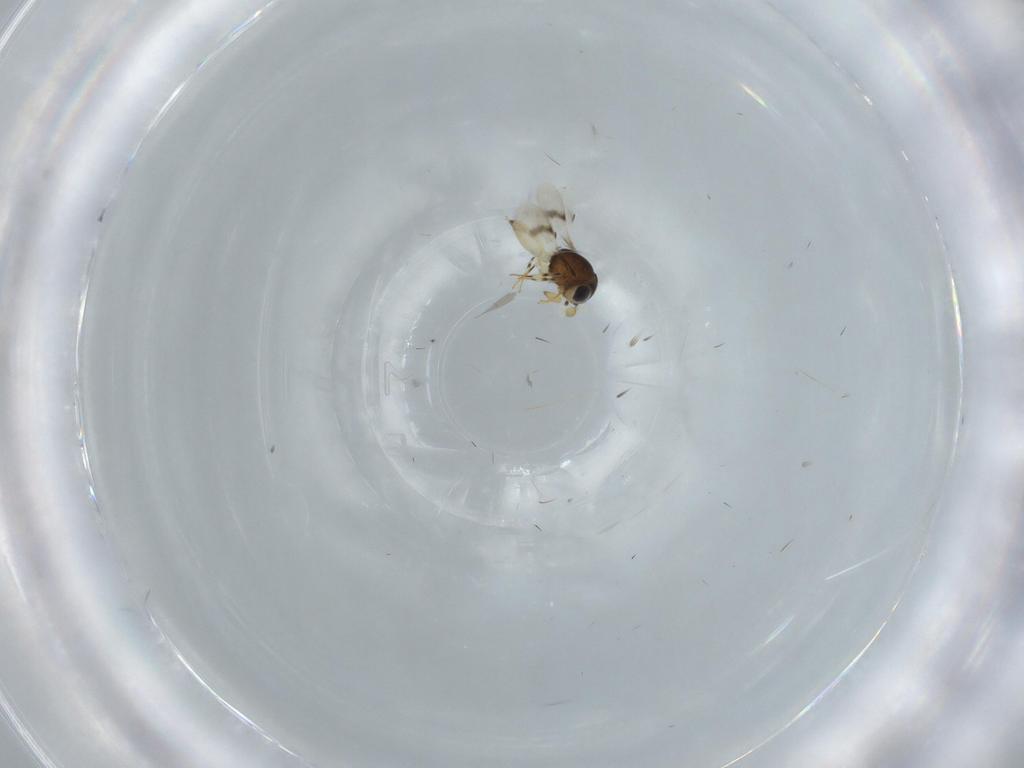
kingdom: Animalia
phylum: Arthropoda
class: Insecta
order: Hymenoptera
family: Scelionidae
